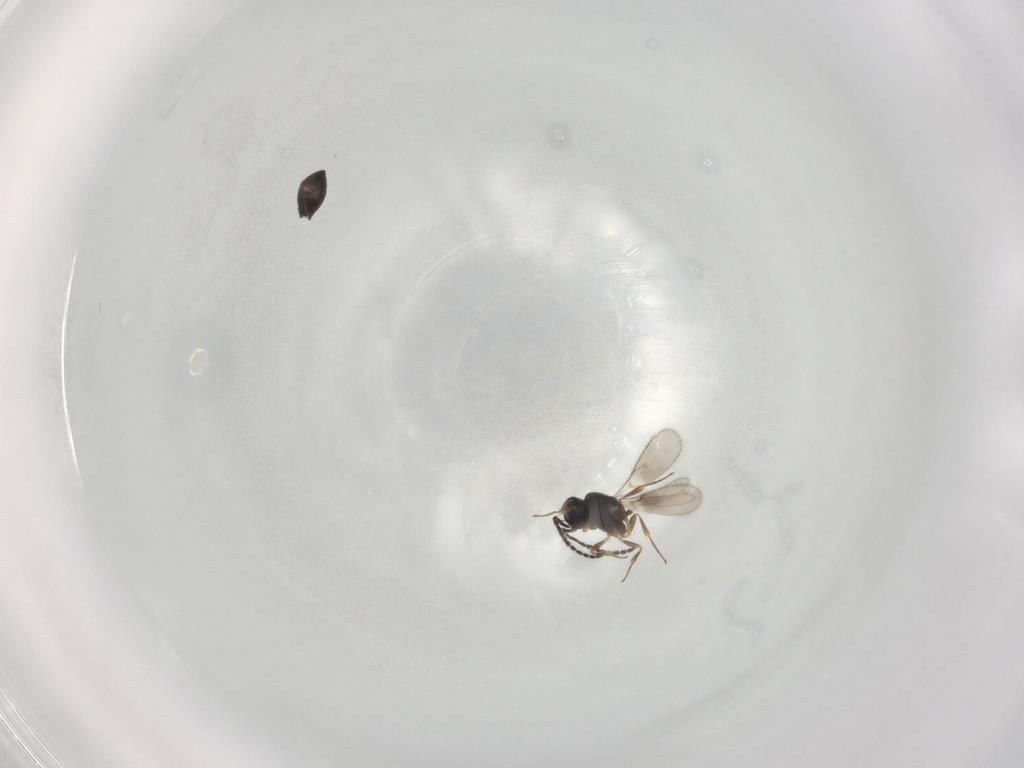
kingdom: Animalia
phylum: Arthropoda
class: Insecta
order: Hymenoptera
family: Scelionidae
